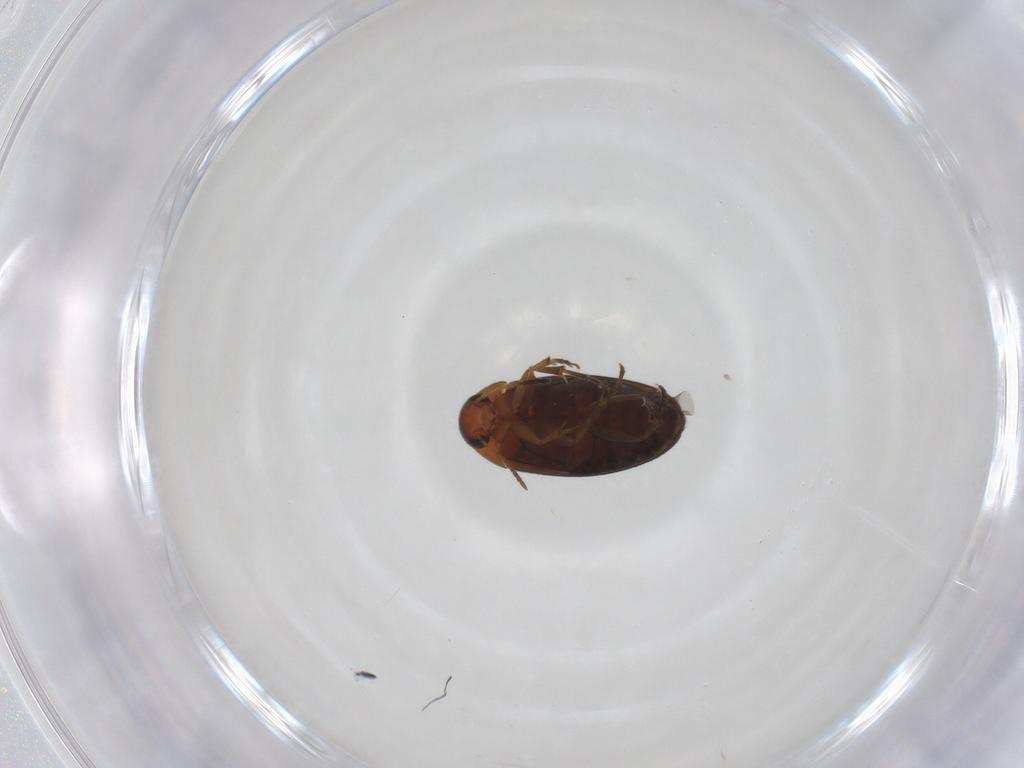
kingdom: Animalia
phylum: Arthropoda
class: Insecta
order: Coleoptera
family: Scraptiidae
